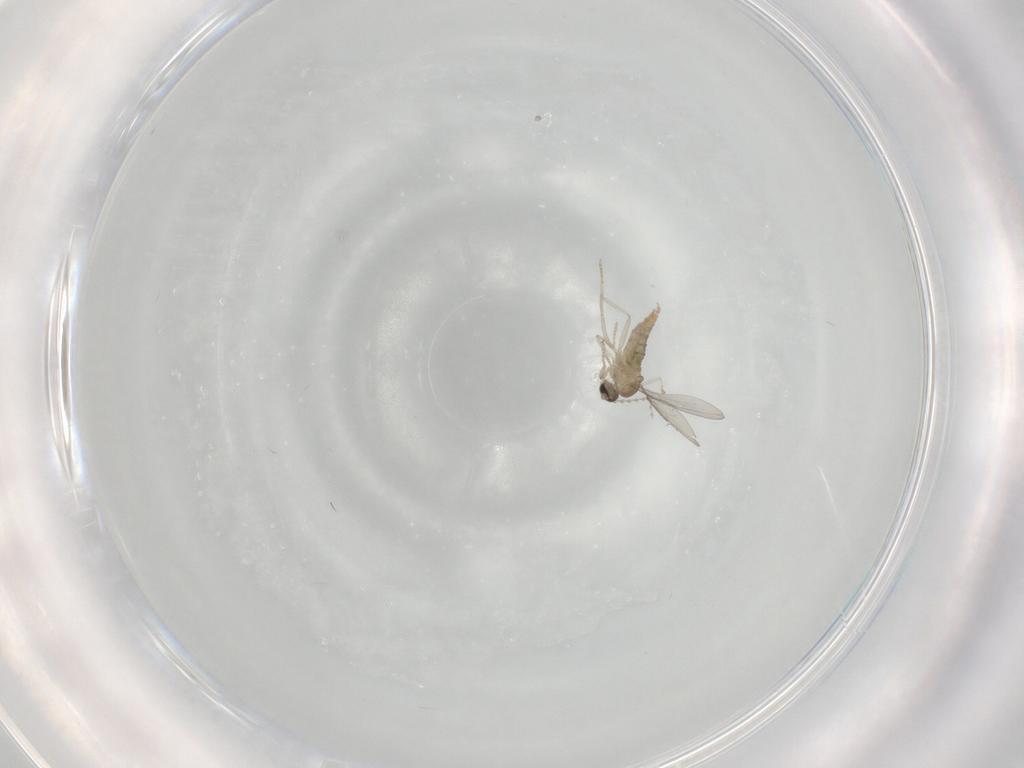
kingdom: Animalia
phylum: Arthropoda
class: Insecta
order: Diptera
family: Cecidomyiidae
